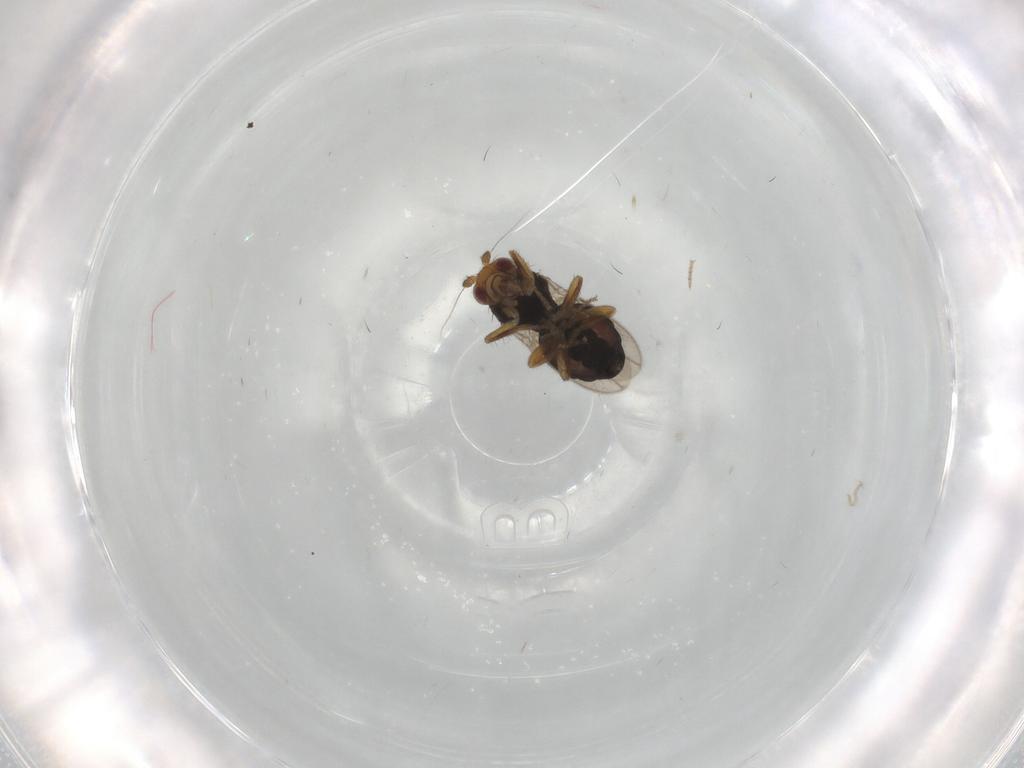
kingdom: Animalia
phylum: Arthropoda
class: Insecta
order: Diptera
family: Sphaeroceridae
